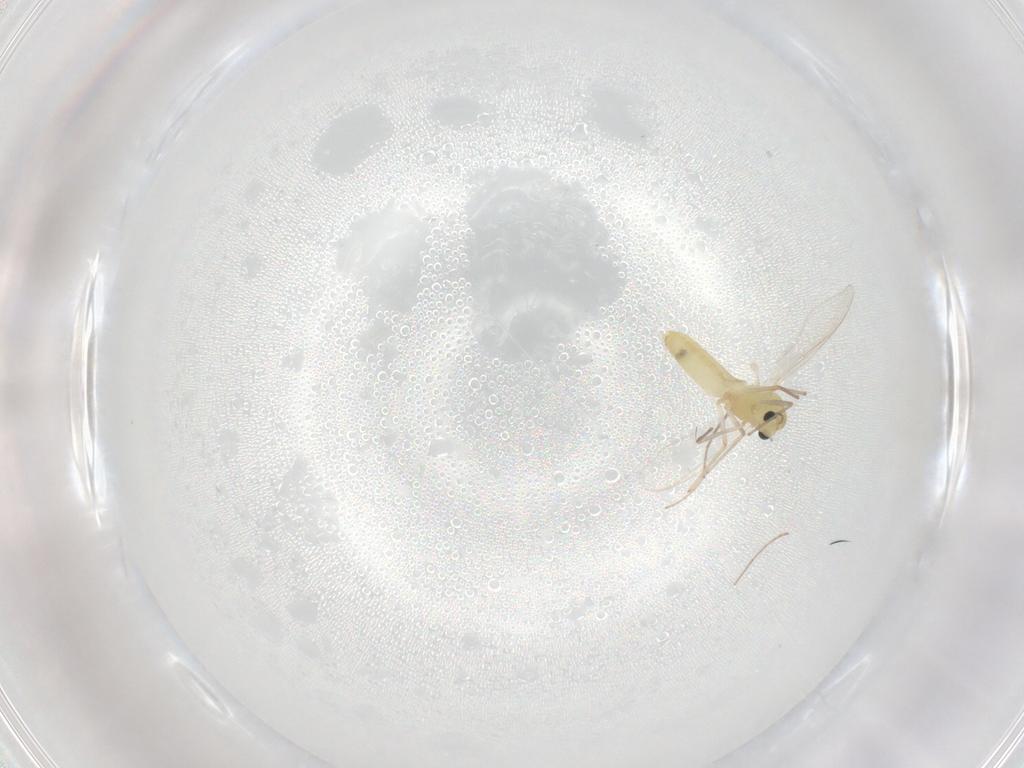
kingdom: Animalia
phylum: Arthropoda
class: Insecta
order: Diptera
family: Chironomidae
